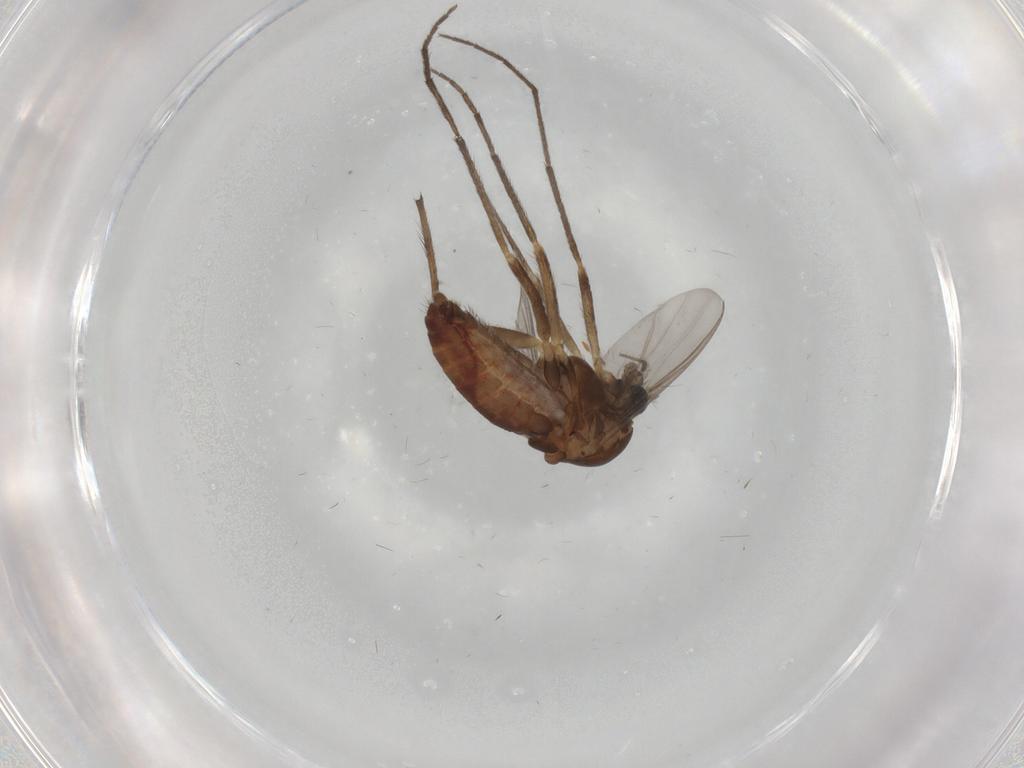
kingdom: Animalia
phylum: Arthropoda
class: Insecta
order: Diptera
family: Chironomidae
